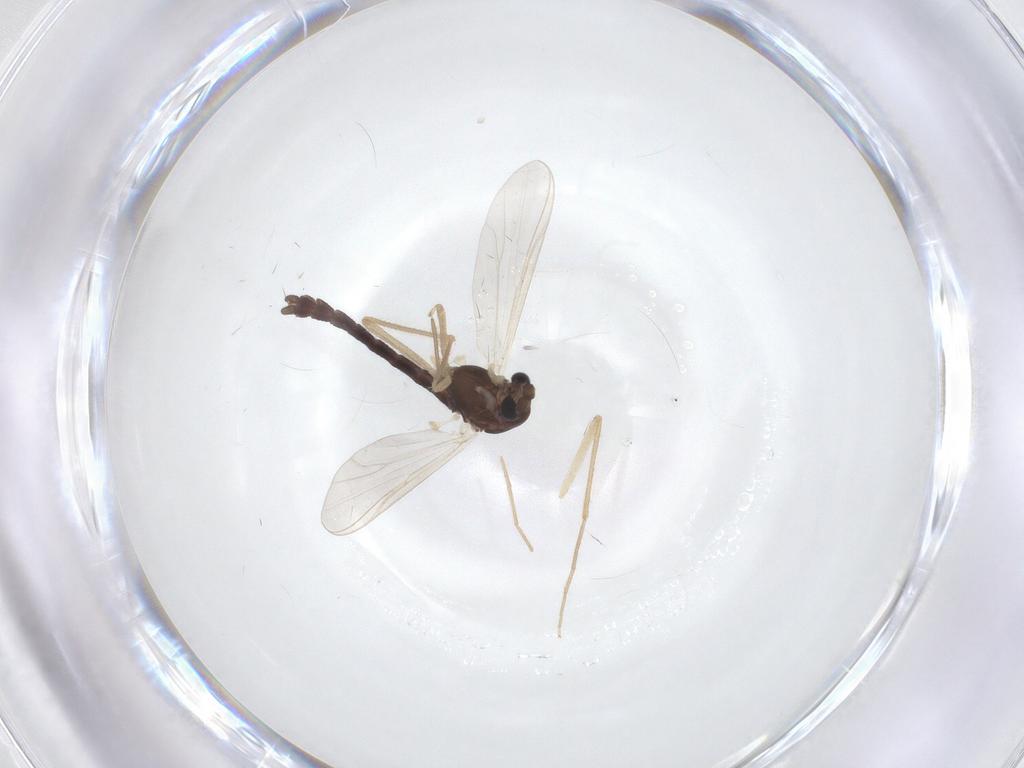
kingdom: Animalia
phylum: Arthropoda
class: Insecta
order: Diptera
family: Chironomidae
